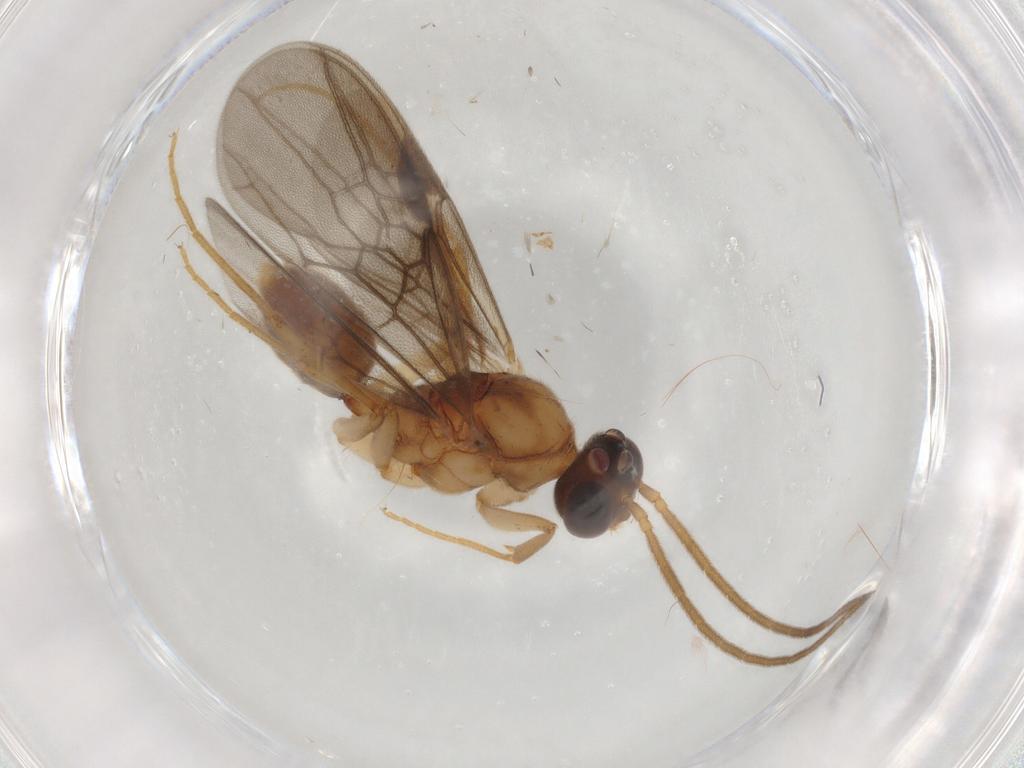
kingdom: Animalia
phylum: Arthropoda
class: Insecta
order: Hymenoptera
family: Formicidae
